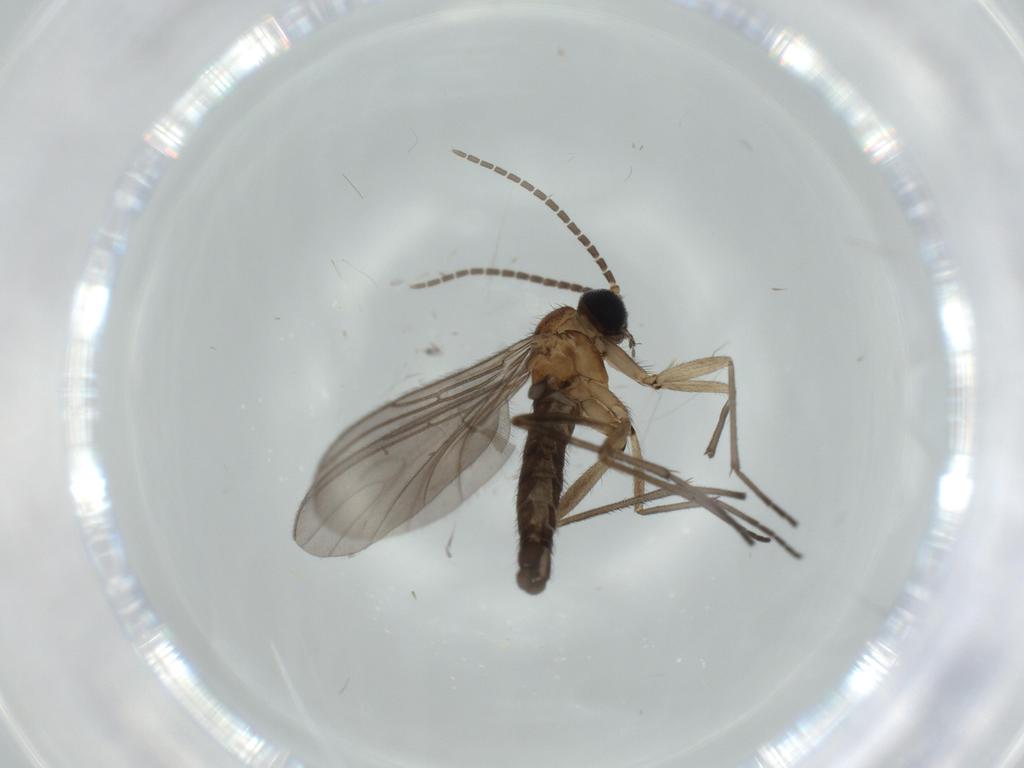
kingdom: Animalia
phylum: Arthropoda
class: Insecta
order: Diptera
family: Sciaridae
